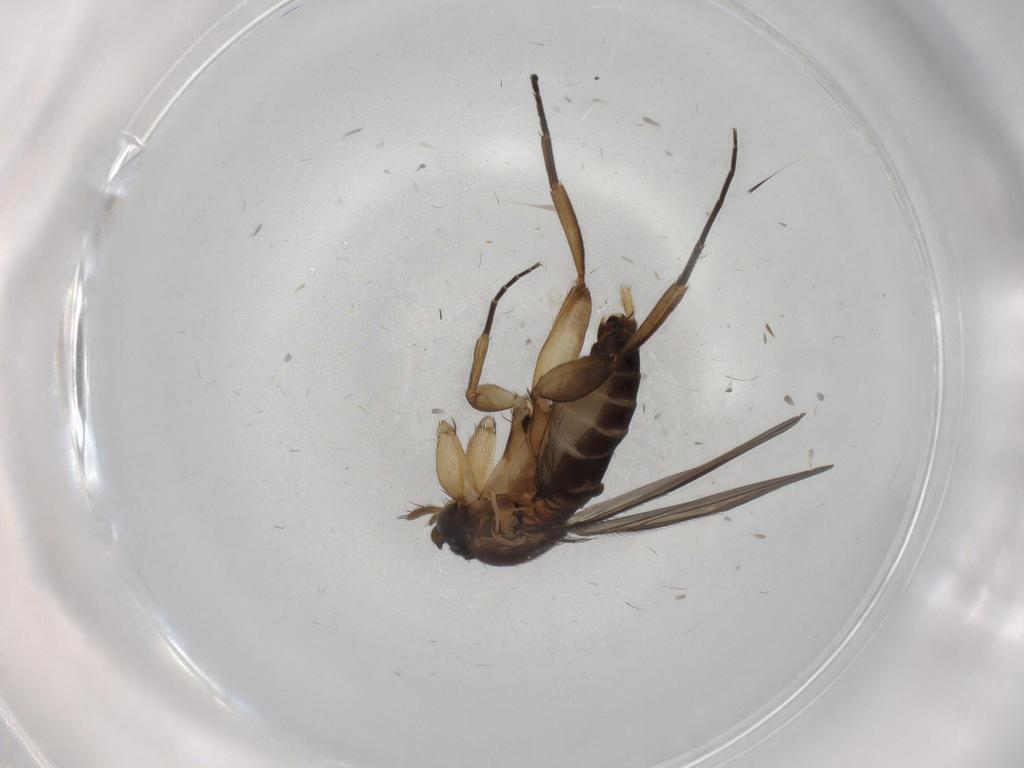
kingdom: Animalia
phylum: Arthropoda
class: Insecta
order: Diptera
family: Phoridae
